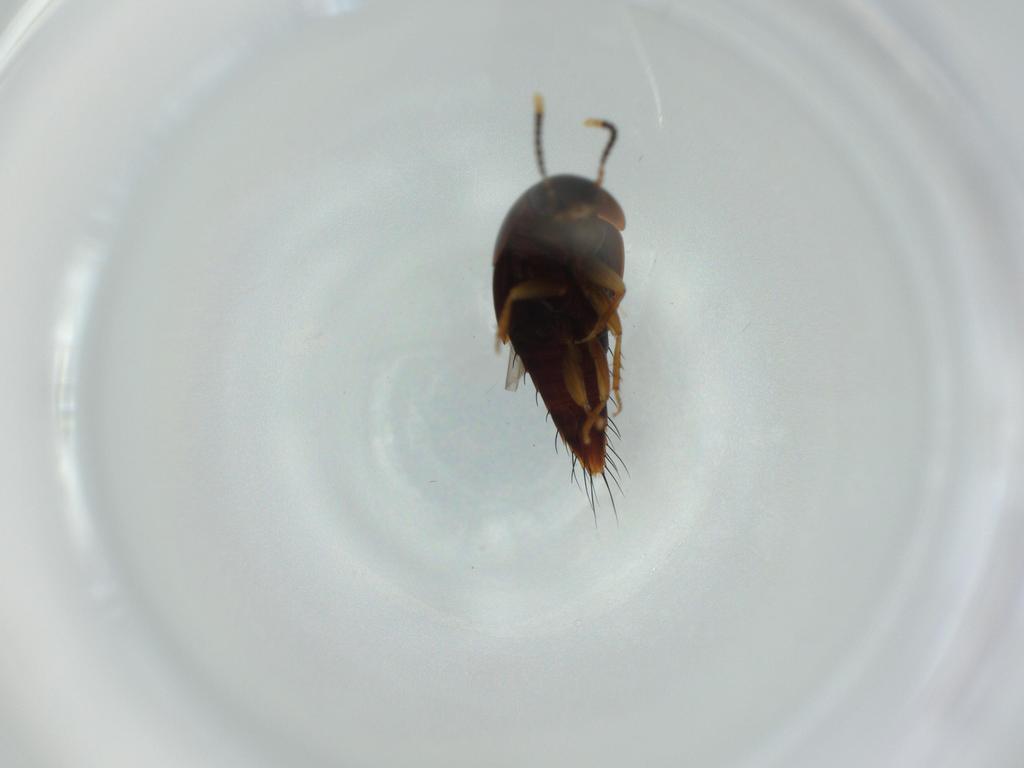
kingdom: Animalia
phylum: Arthropoda
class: Insecta
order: Coleoptera
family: Staphylinidae
